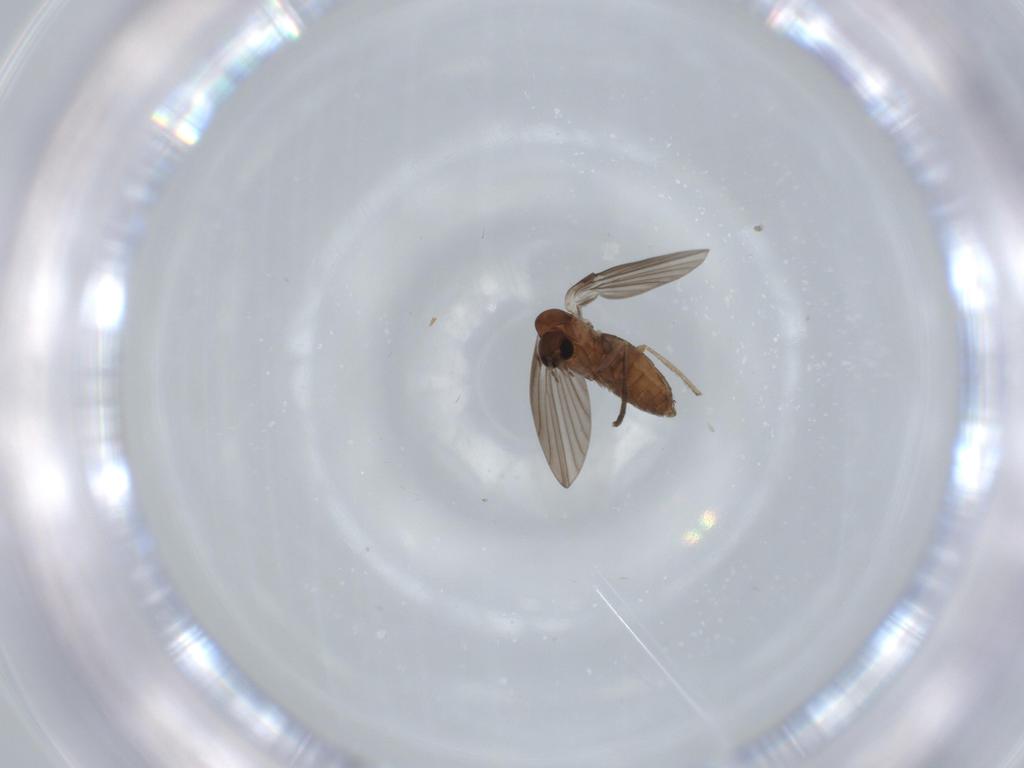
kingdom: Animalia
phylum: Arthropoda
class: Insecta
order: Diptera
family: Psychodidae
